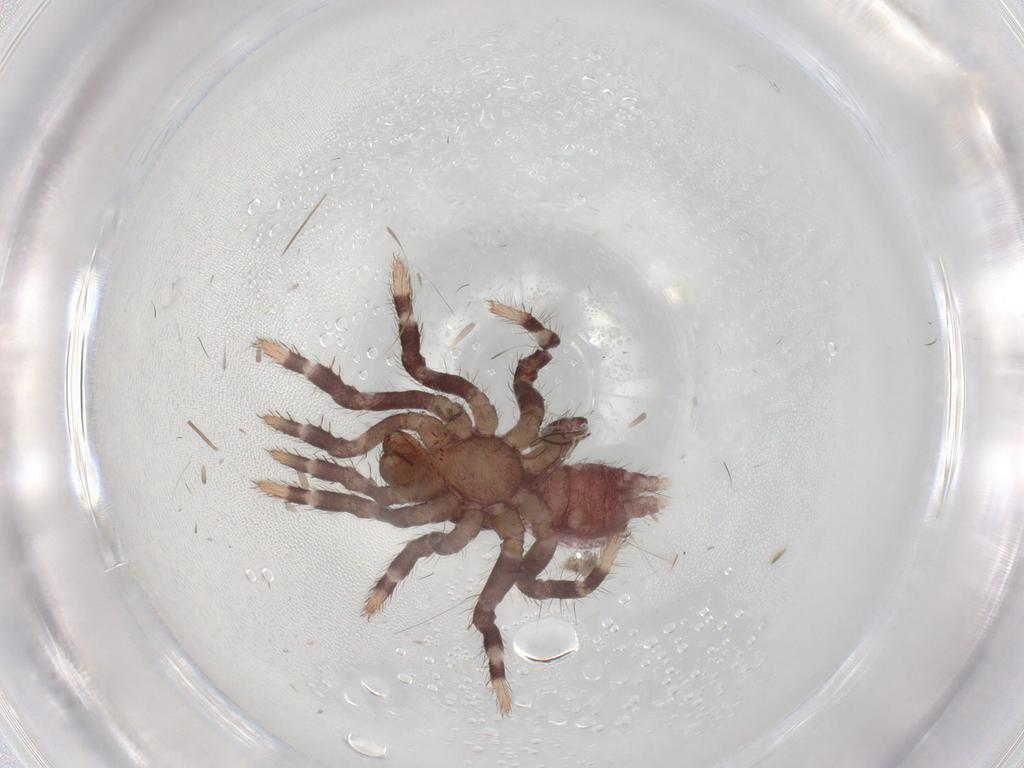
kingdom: Animalia
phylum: Arthropoda
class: Arachnida
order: Araneae
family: Halonoproctidae
